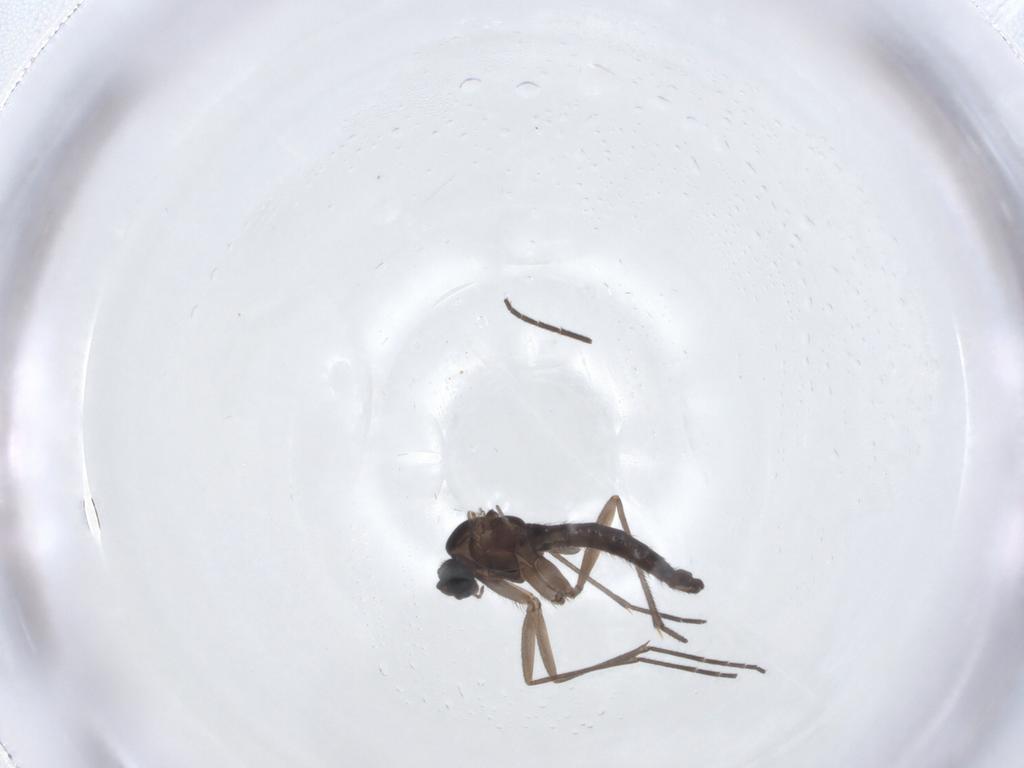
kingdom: Animalia
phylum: Arthropoda
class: Insecta
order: Diptera
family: Sciaridae
